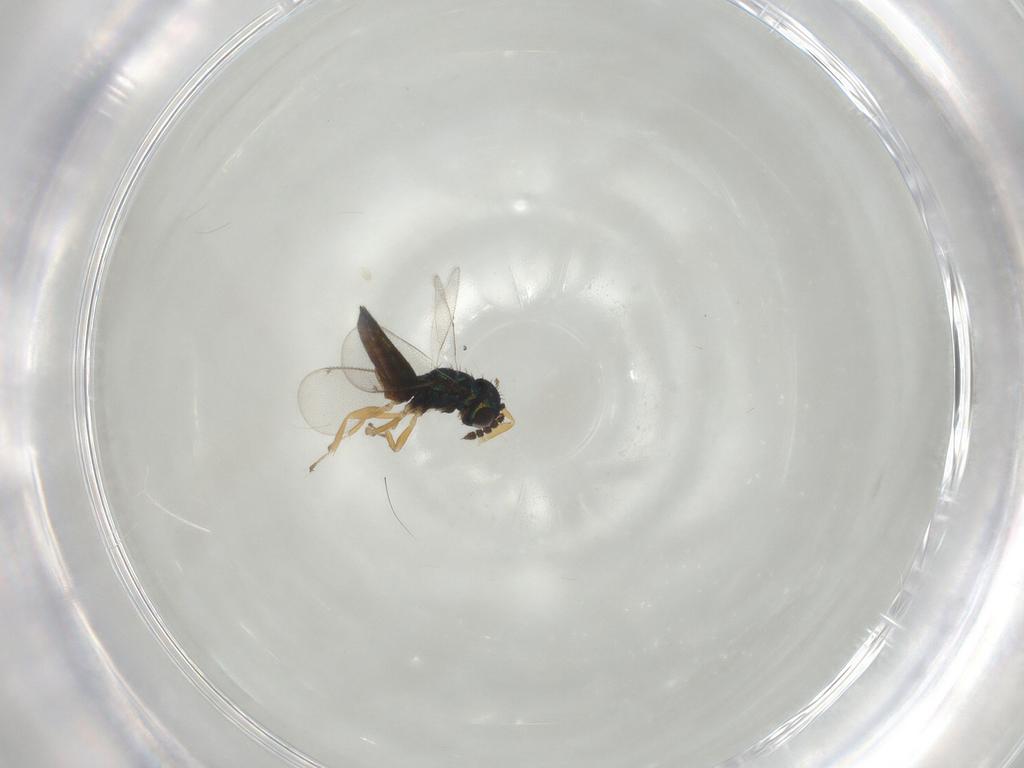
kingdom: Animalia
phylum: Arthropoda
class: Insecta
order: Hymenoptera
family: Eulophidae
